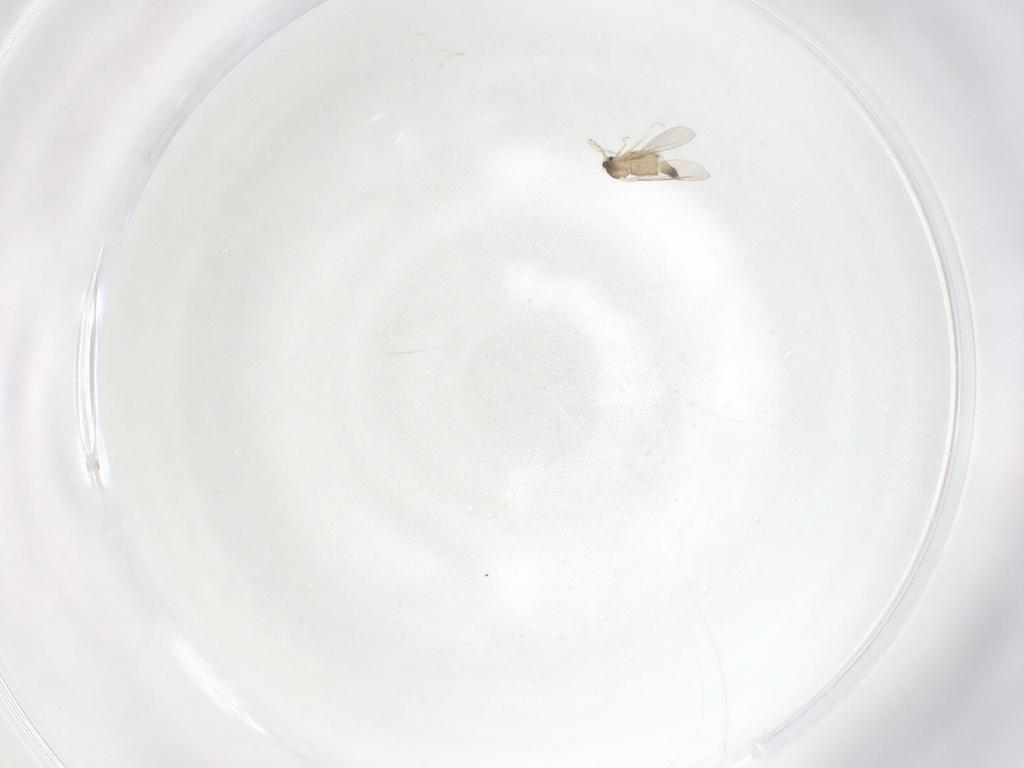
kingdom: Animalia
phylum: Arthropoda
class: Insecta
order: Diptera
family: Cecidomyiidae
